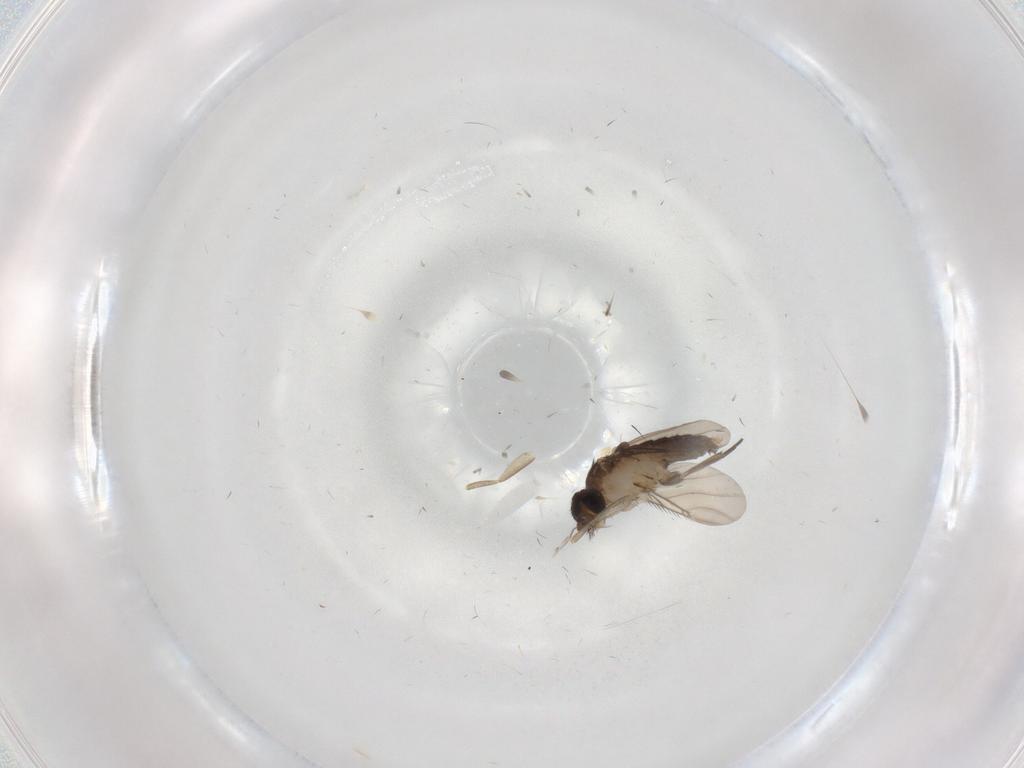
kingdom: Animalia
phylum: Arthropoda
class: Insecta
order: Diptera
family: Phoridae
